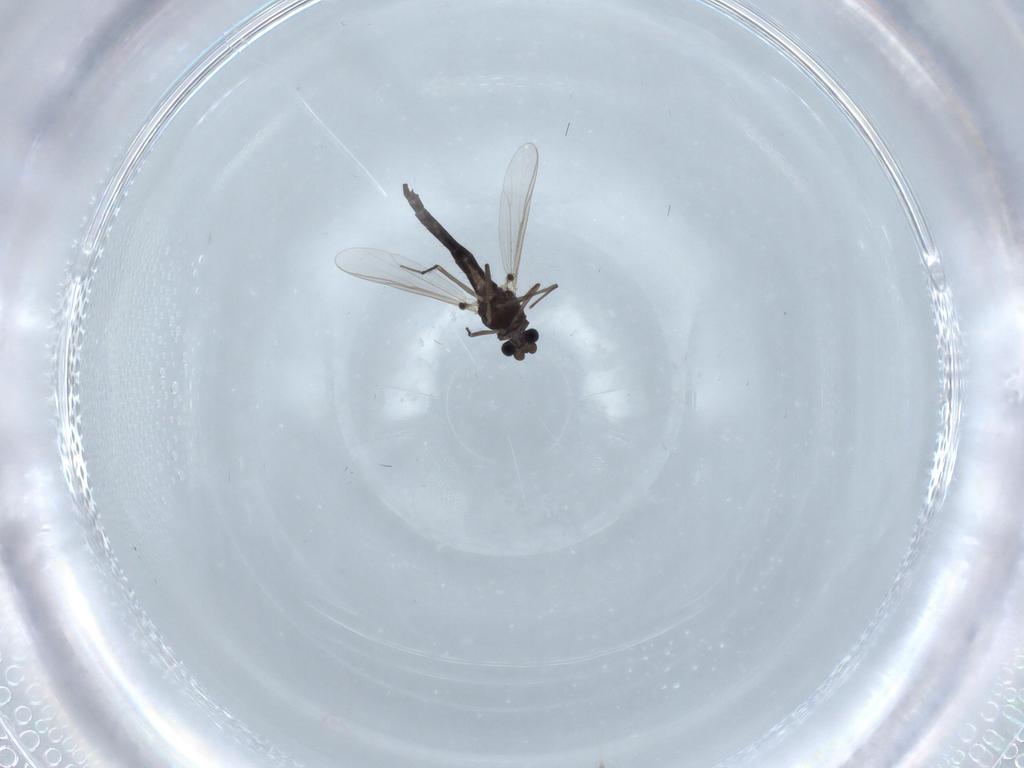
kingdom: Animalia
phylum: Arthropoda
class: Insecta
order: Diptera
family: Chironomidae
